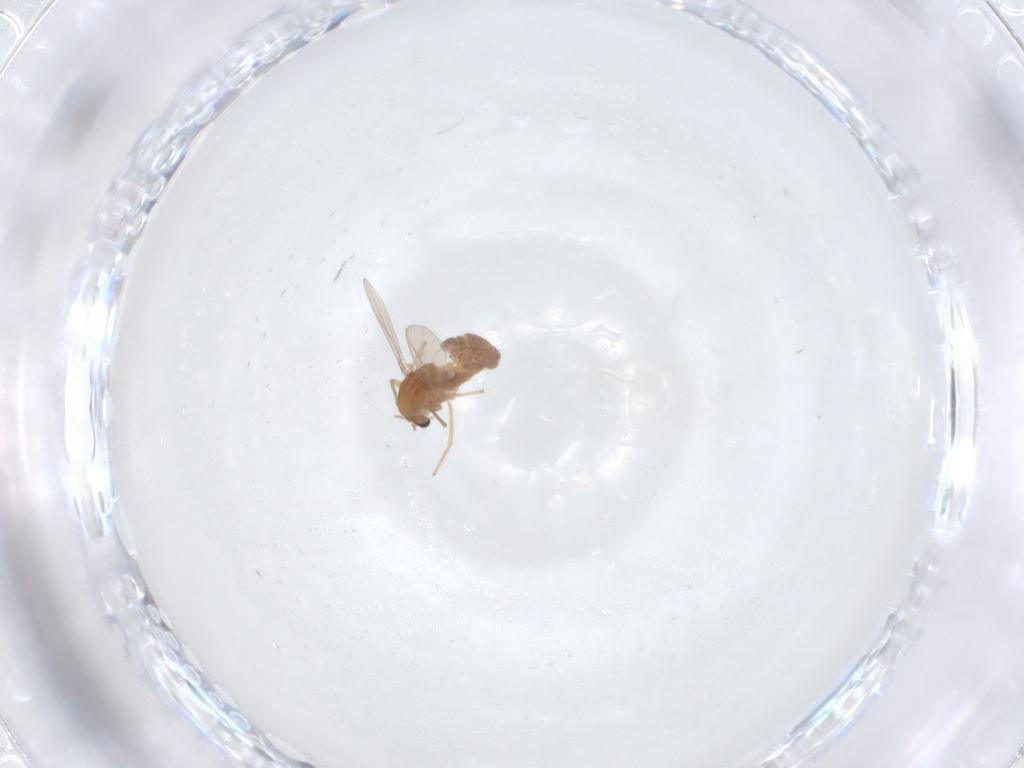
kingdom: Animalia
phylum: Arthropoda
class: Insecta
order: Diptera
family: Chironomidae
